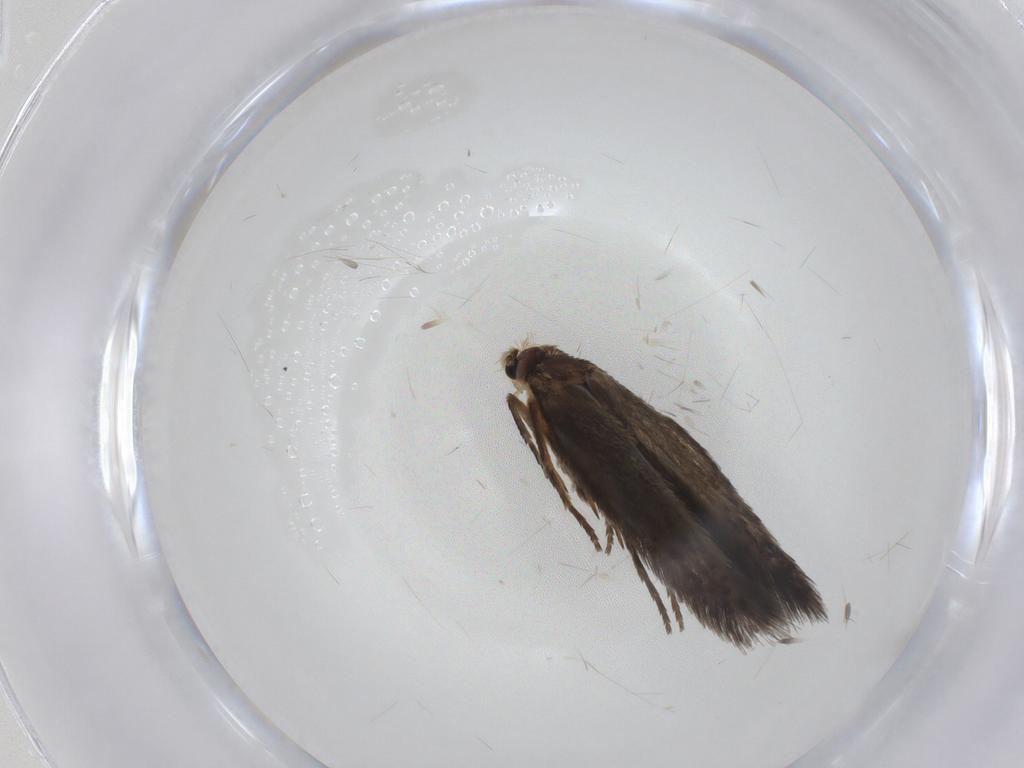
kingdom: Animalia
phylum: Arthropoda
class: Insecta
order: Lepidoptera
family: Nepticulidae
